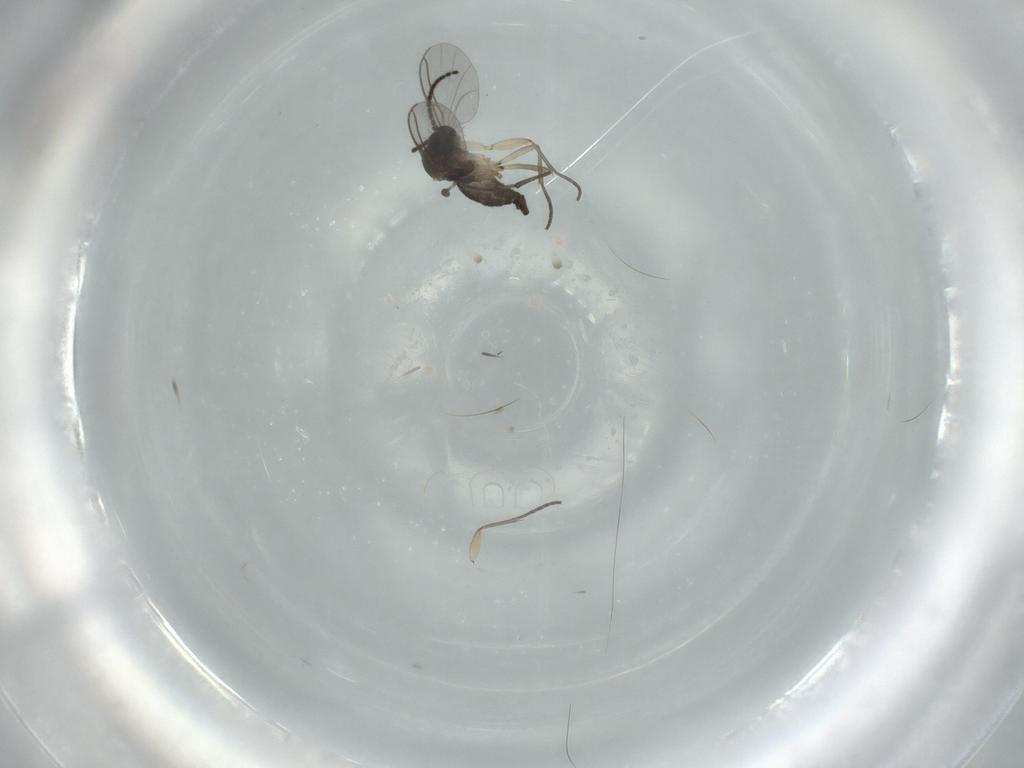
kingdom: Animalia
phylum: Arthropoda
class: Insecta
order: Diptera
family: Sciaridae
